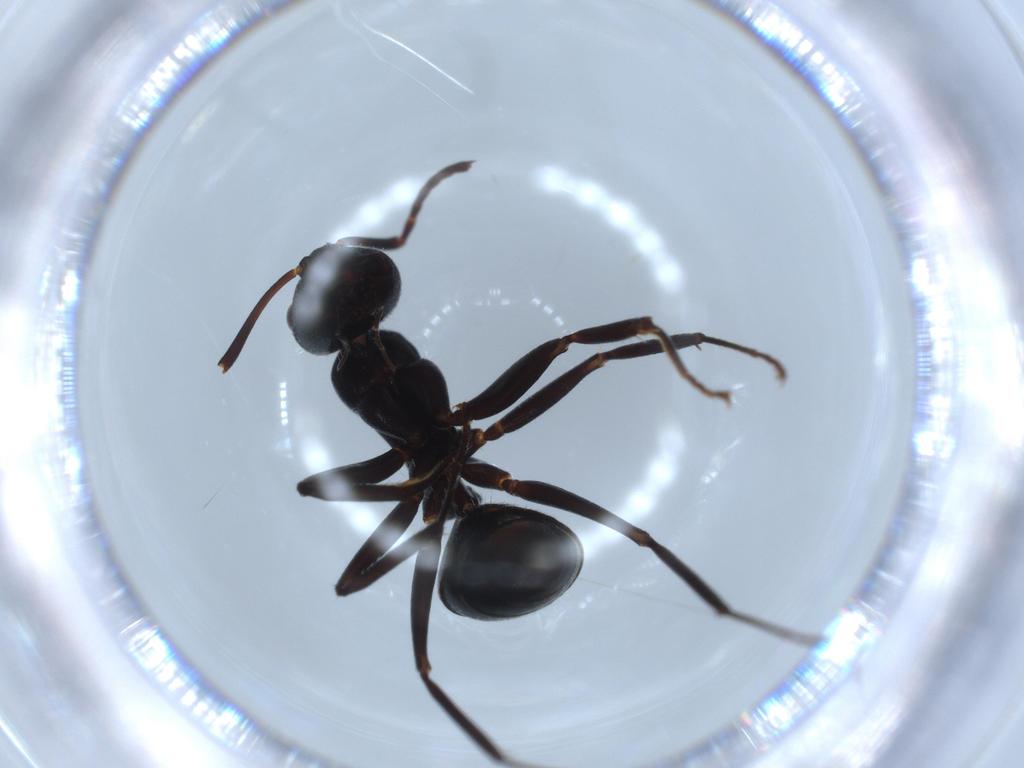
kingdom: Animalia
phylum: Arthropoda
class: Insecta
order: Hymenoptera
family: Formicidae
